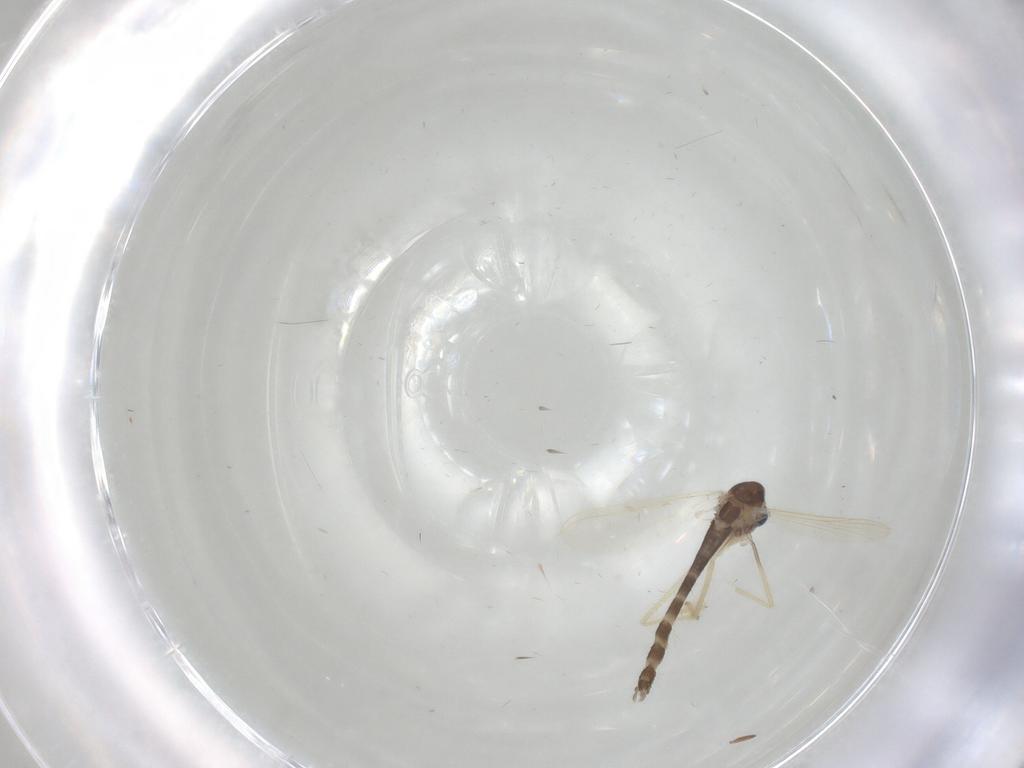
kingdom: Animalia
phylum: Arthropoda
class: Insecta
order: Diptera
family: Chironomidae
